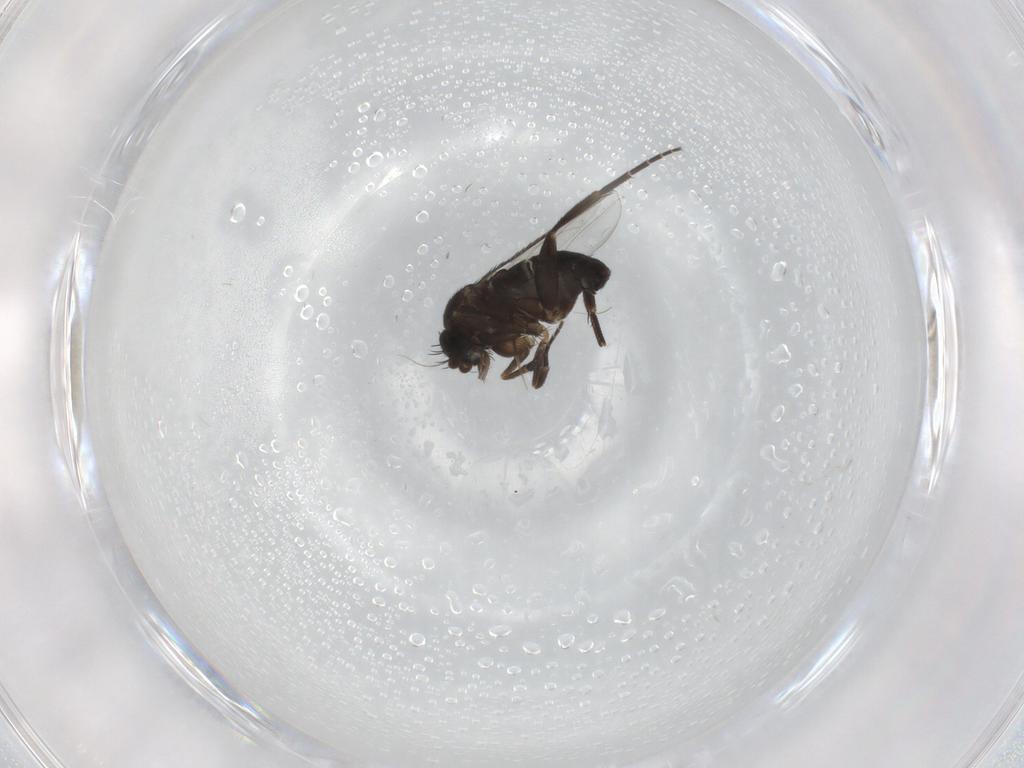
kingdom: Animalia
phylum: Arthropoda
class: Insecta
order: Diptera
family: Phoridae
